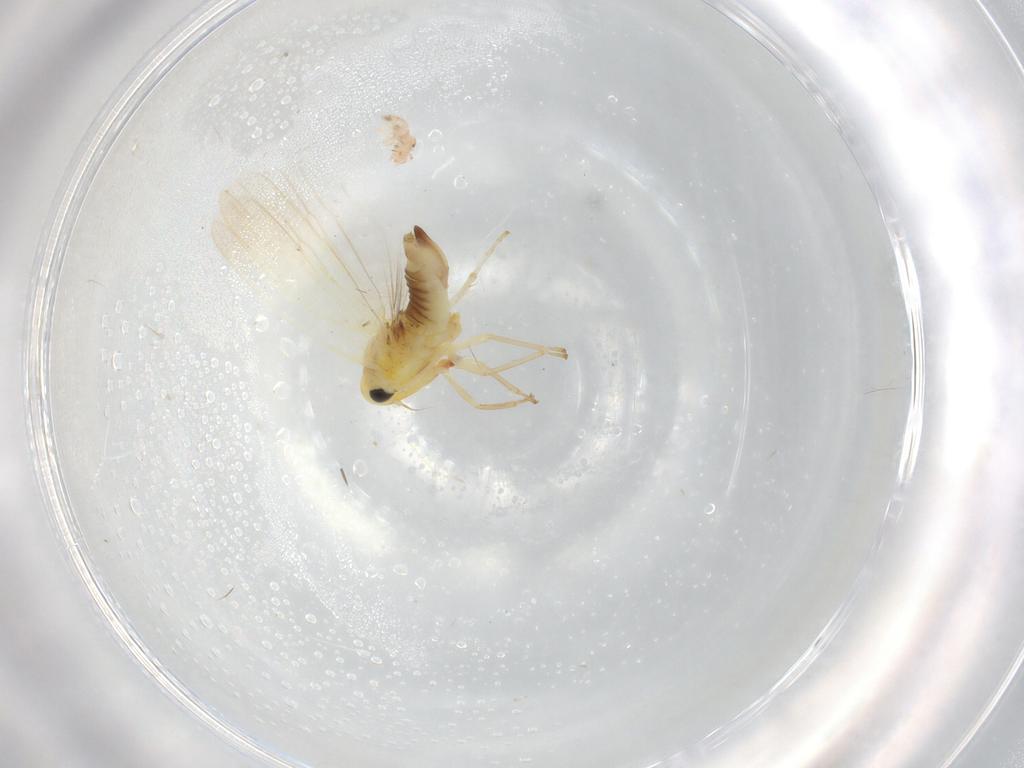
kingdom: Animalia
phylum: Arthropoda
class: Insecta
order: Hemiptera
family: Cicadellidae
